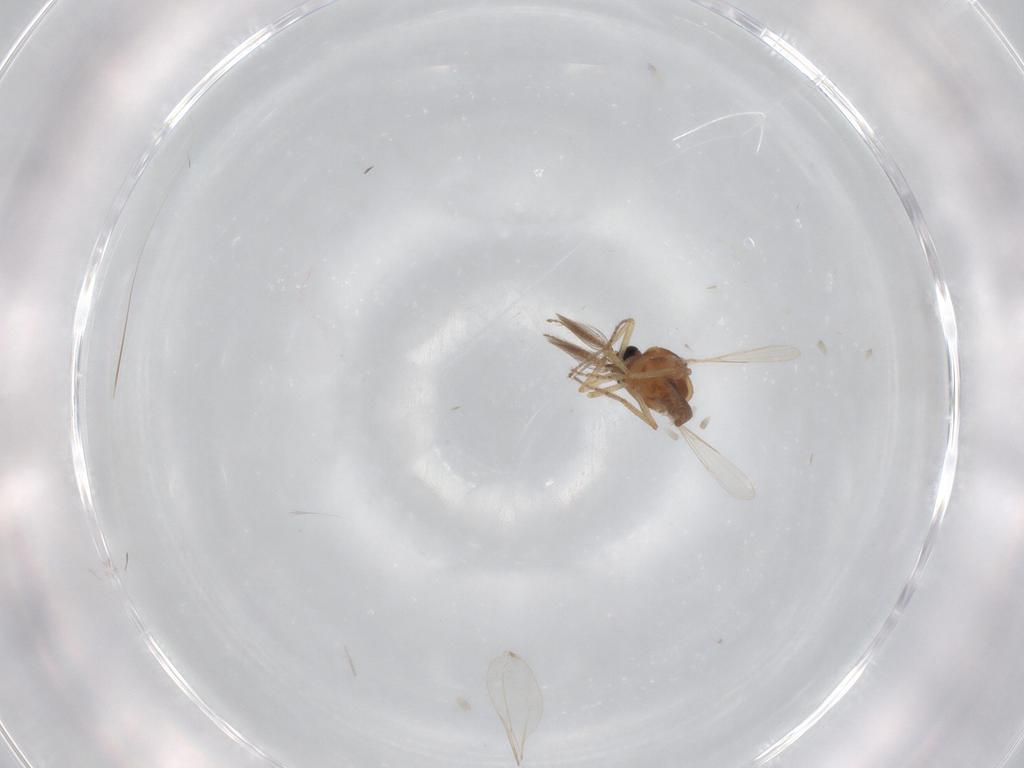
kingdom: Animalia
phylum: Arthropoda
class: Insecta
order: Diptera
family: Ceratopogonidae
